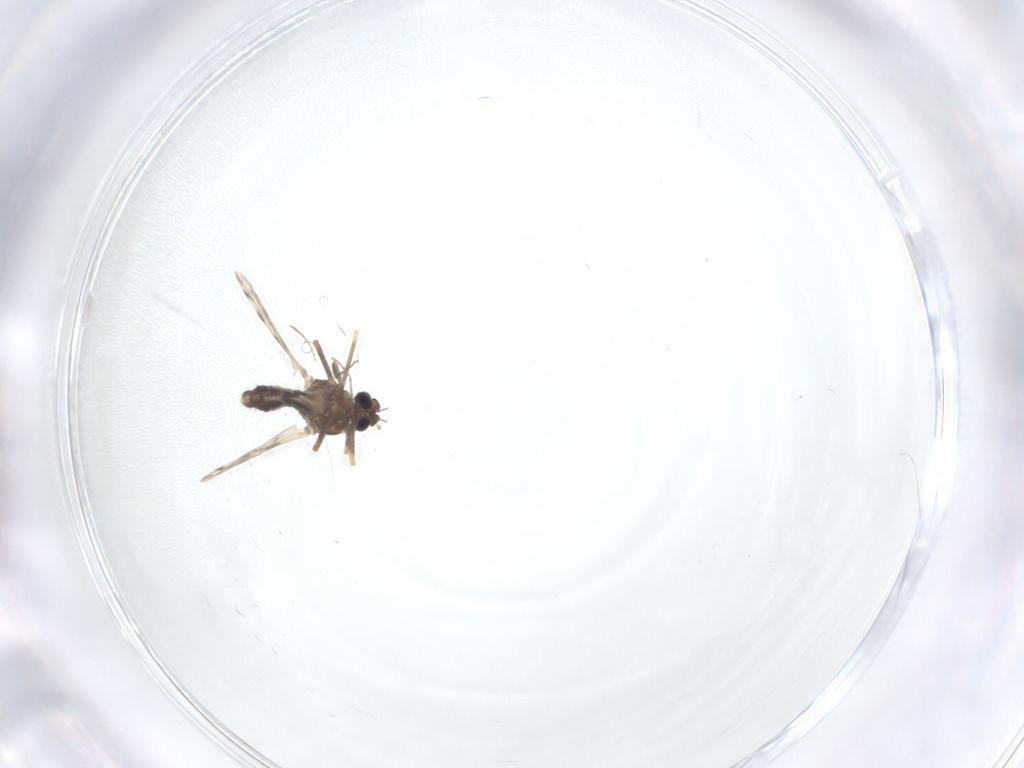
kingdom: Animalia
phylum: Arthropoda
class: Insecta
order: Diptera
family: Ceratopogonidae
